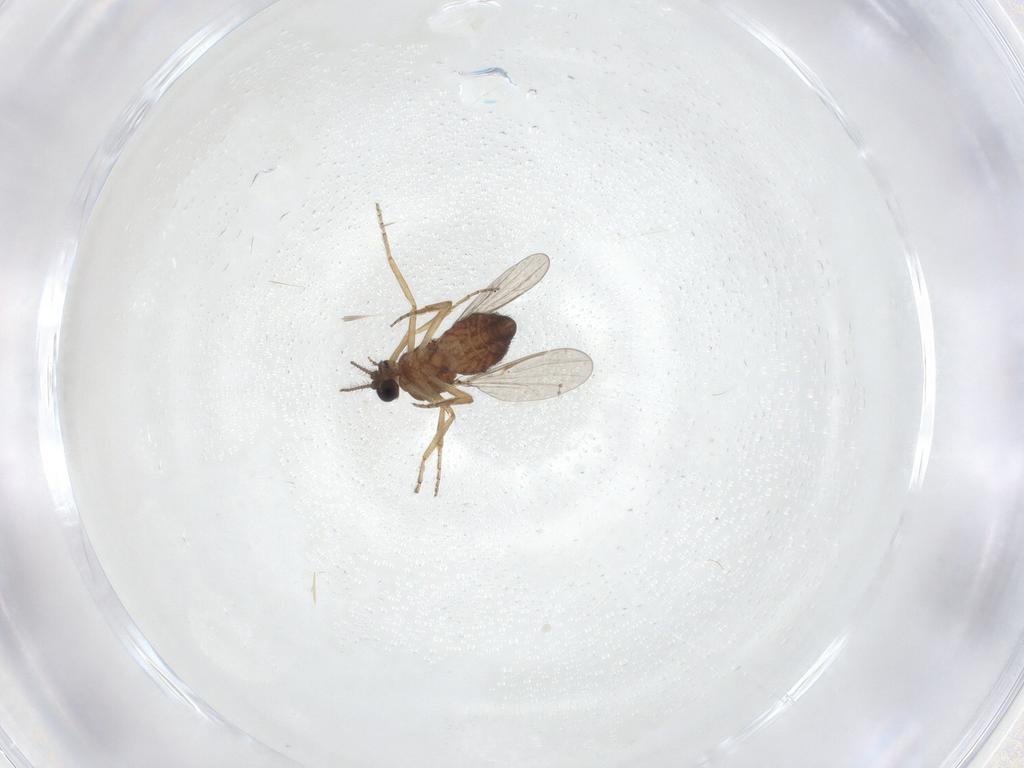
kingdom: Animalia
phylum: Arthropoda
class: Insecta
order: Diptera
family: Ceratopogonidae
